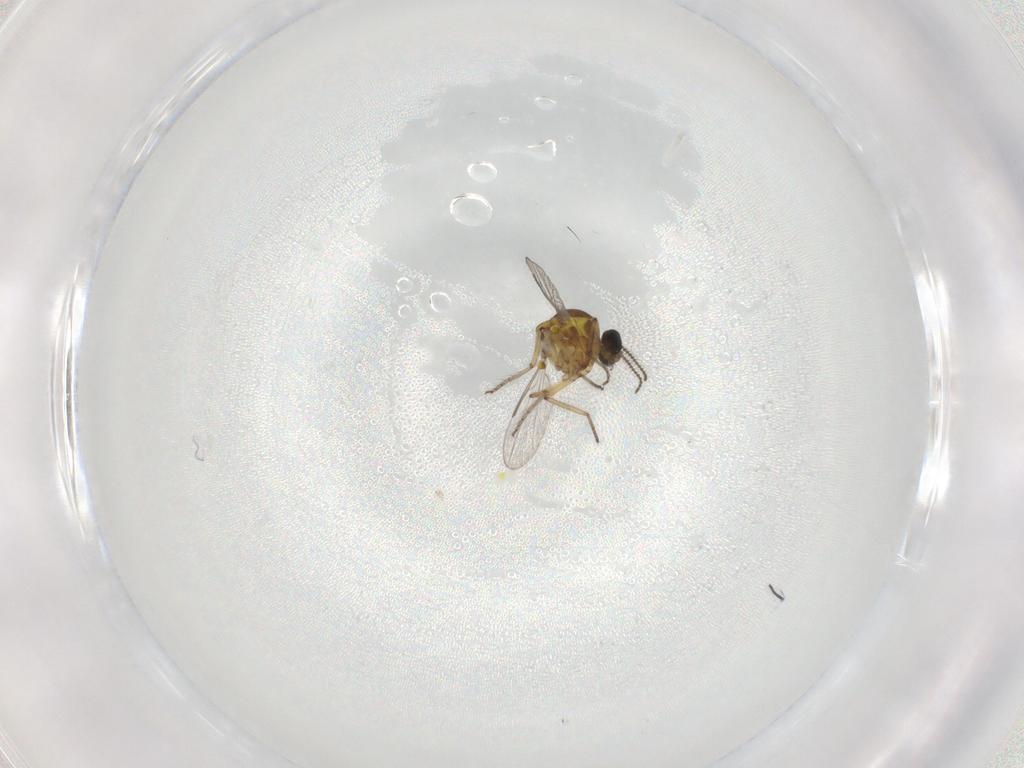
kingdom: Animalia
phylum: Arthropoda
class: Insecta
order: Diptera
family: Ceratopogonidae
